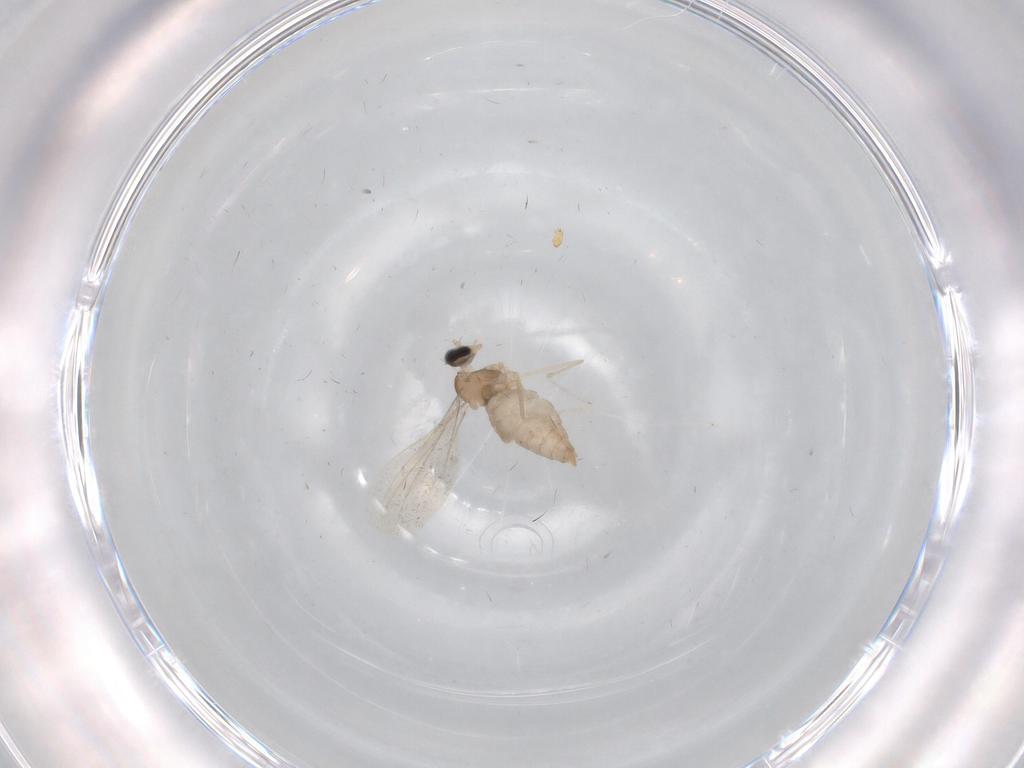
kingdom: Animalia
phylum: Arthropoda
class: Insecta
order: Diptera
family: Cecidomyiidae
